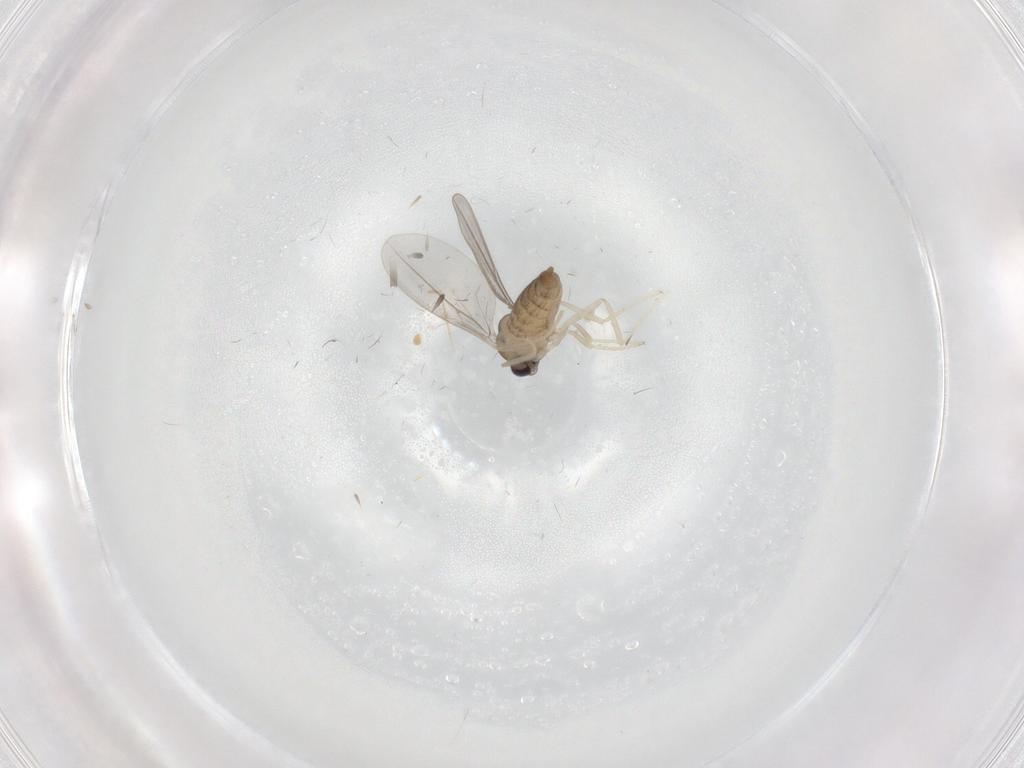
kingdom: Animalia
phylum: Arthropoda
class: Insecta
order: Diptera
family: Cecidomyiidae
